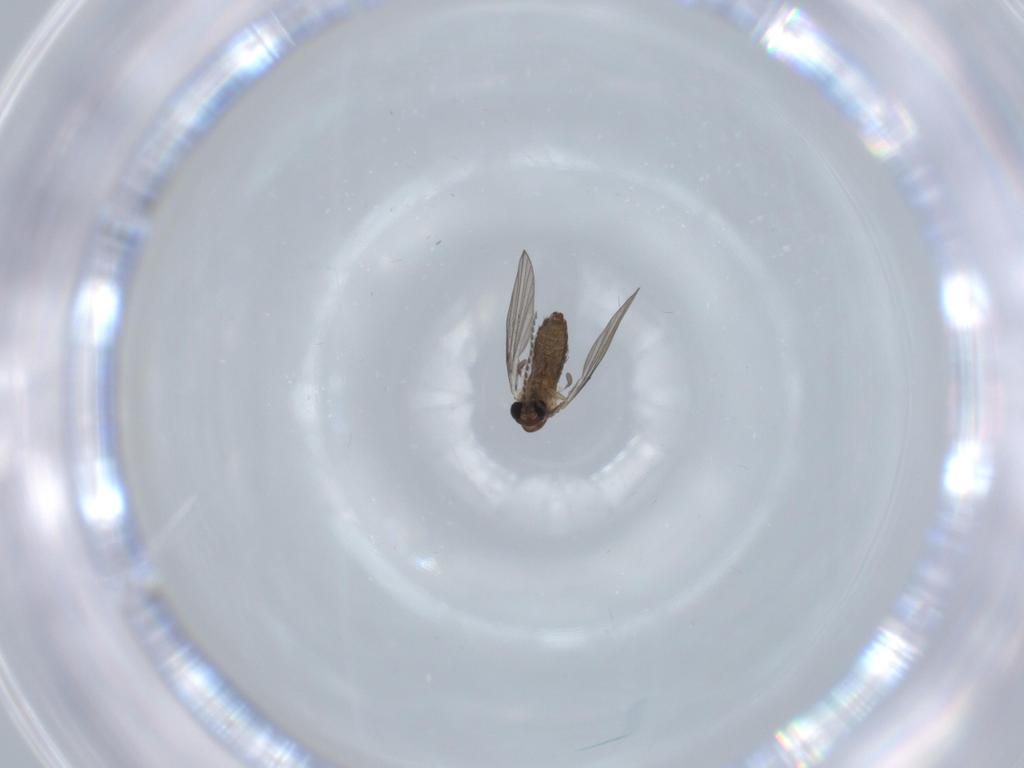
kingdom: Animalia
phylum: Arthropoda
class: Insecta
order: Diptera
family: Psychodidae
